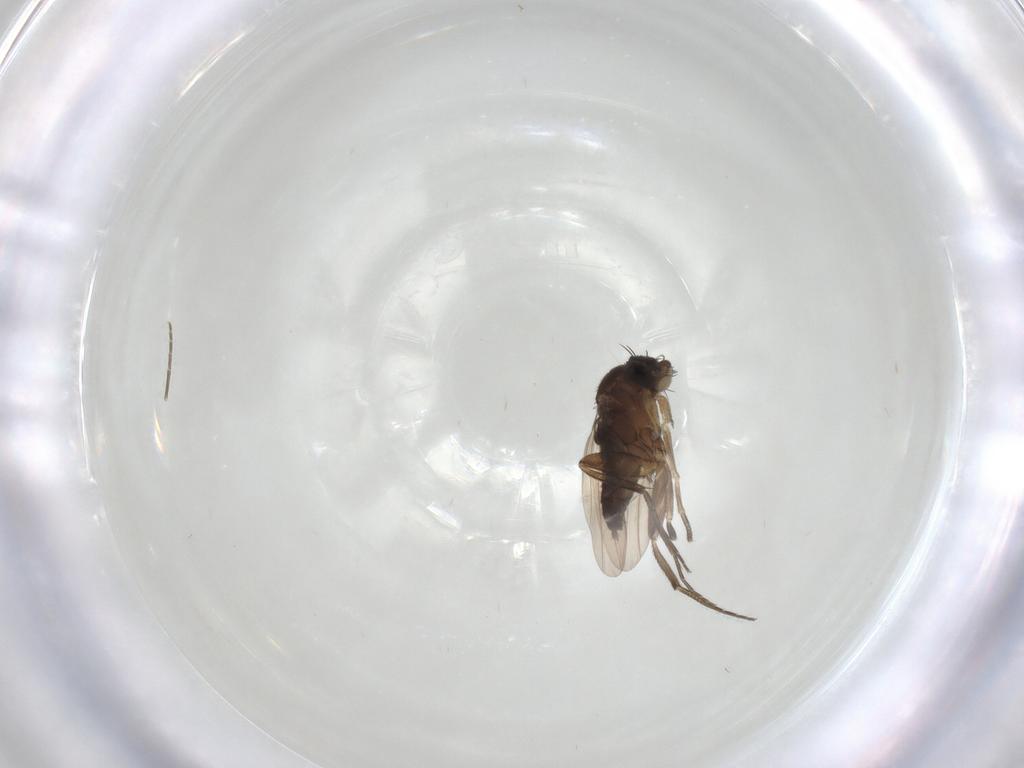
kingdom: Animalia
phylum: Arthropoda
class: Insecta
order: Diptera
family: Phoridae
